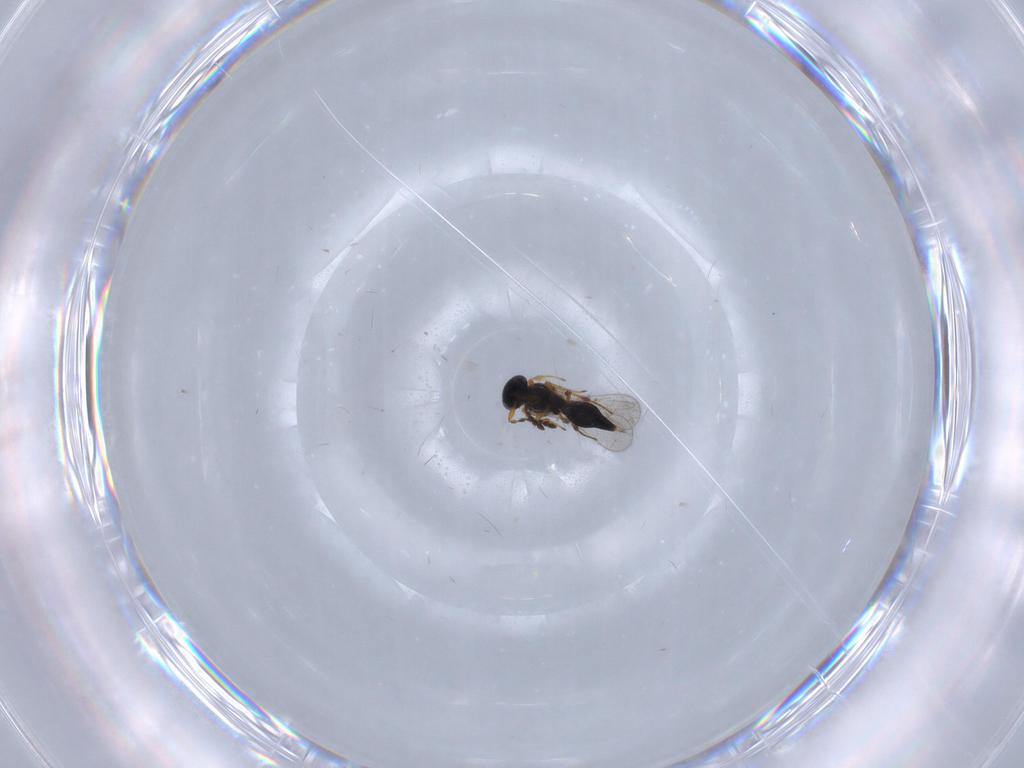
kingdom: Animalia
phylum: Arthropoda
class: Insecta
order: Hymenoptera
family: Platygastridae
